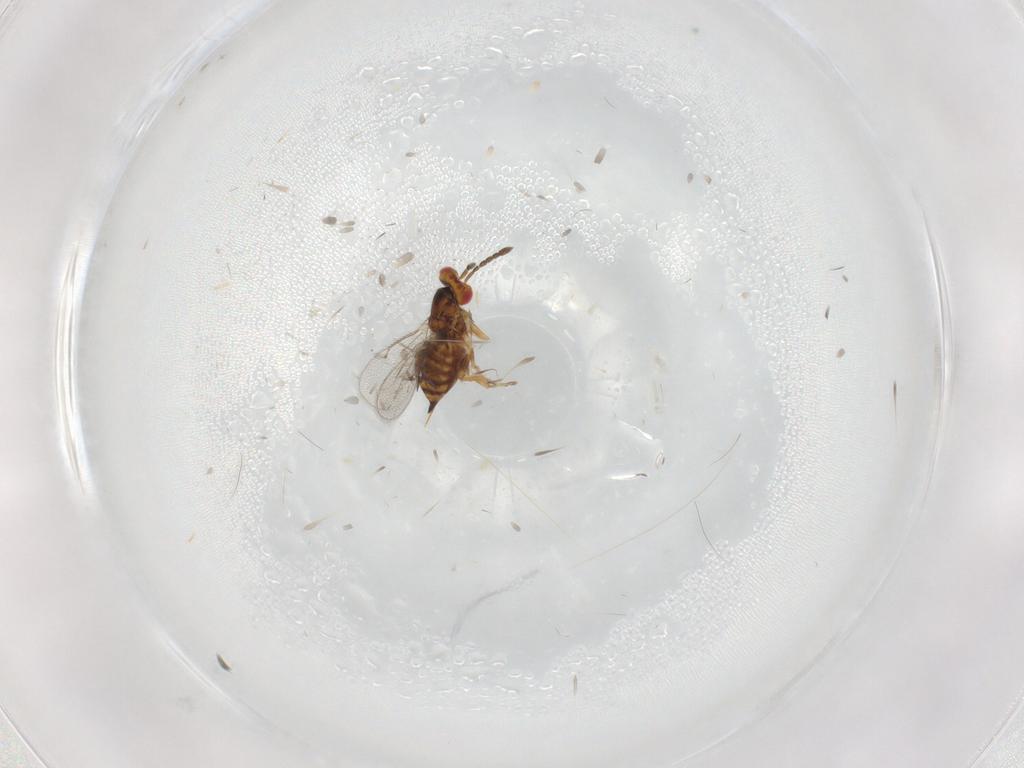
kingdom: Animalia
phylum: Arthropoda
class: Insecta
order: Hymenoptera
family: Eulophidae
